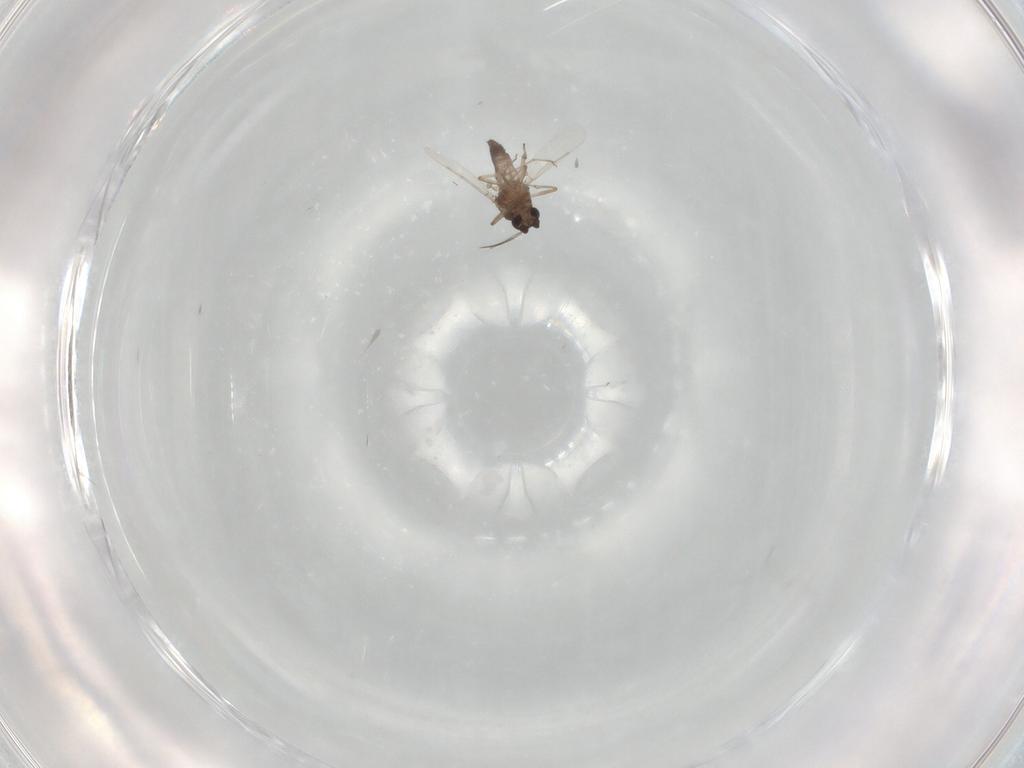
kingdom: Animalia
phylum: Arthropoda
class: Insecta
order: Diptera
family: Ceratopogonidae
